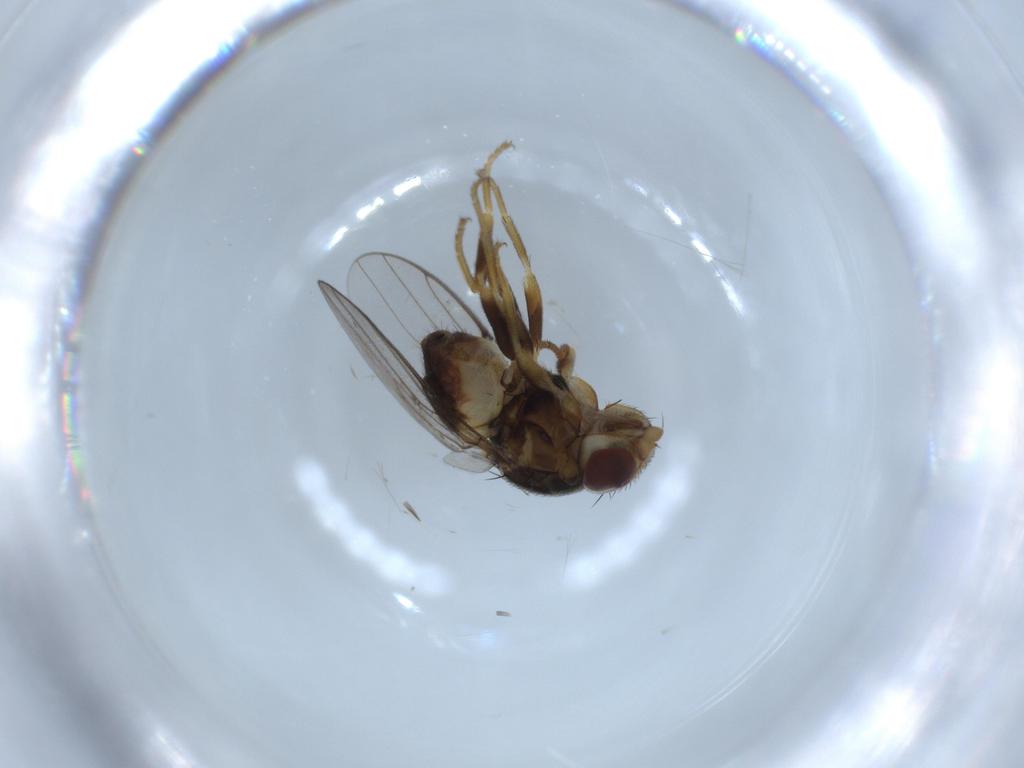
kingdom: Animalia
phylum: Arthropoda
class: Insecta
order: Diptera
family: Chloropidae
